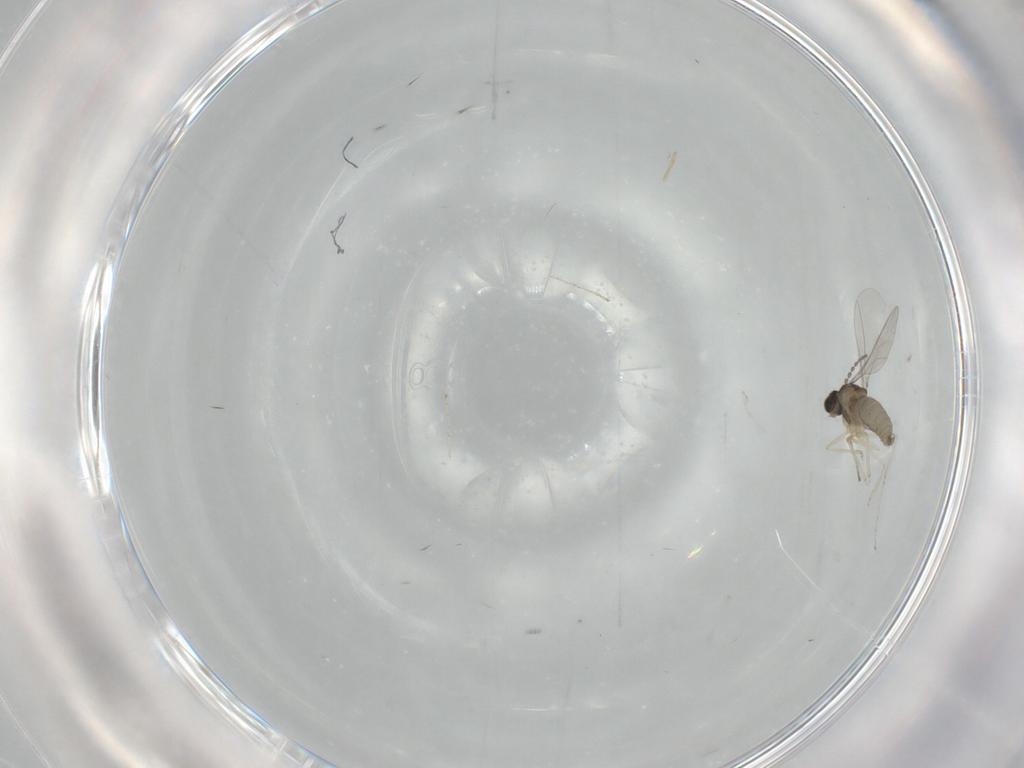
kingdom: Animalia
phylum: Arthropoda
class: Insecta
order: Diptera
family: Cecidomyiidae
